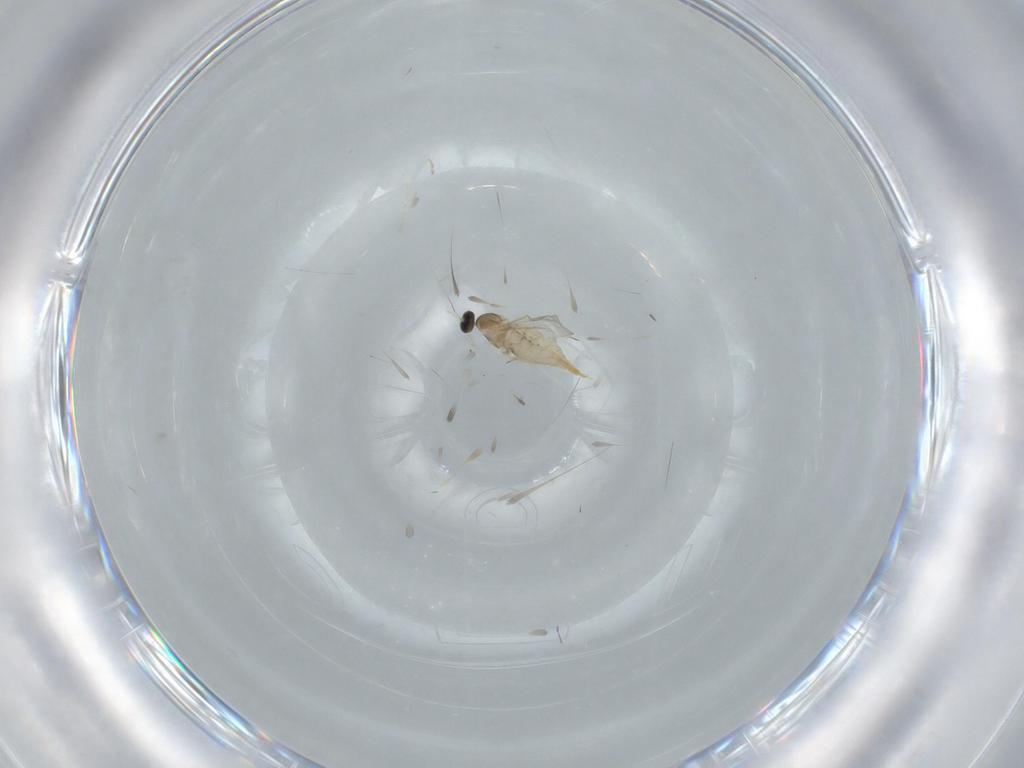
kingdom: Animalia
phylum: Arthropoda
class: Insecta
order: Diptera
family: Cecidomyiidae
